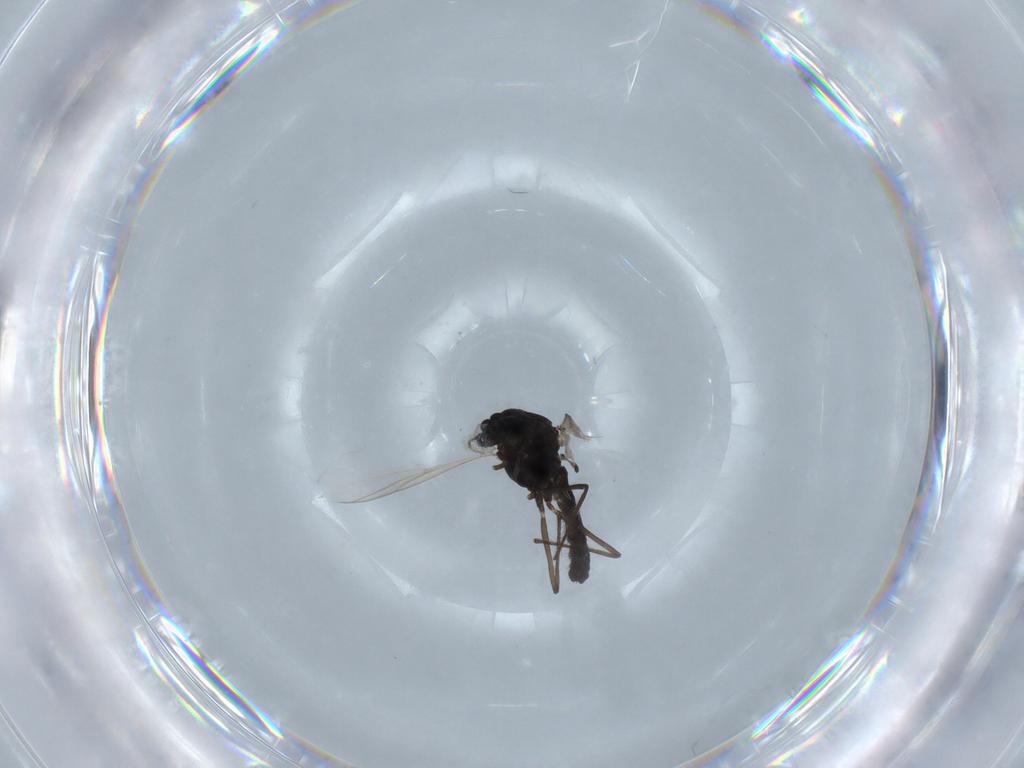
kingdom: Animalia
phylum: Arthropoda
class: Insecta
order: Diptera
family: Chironomidae
